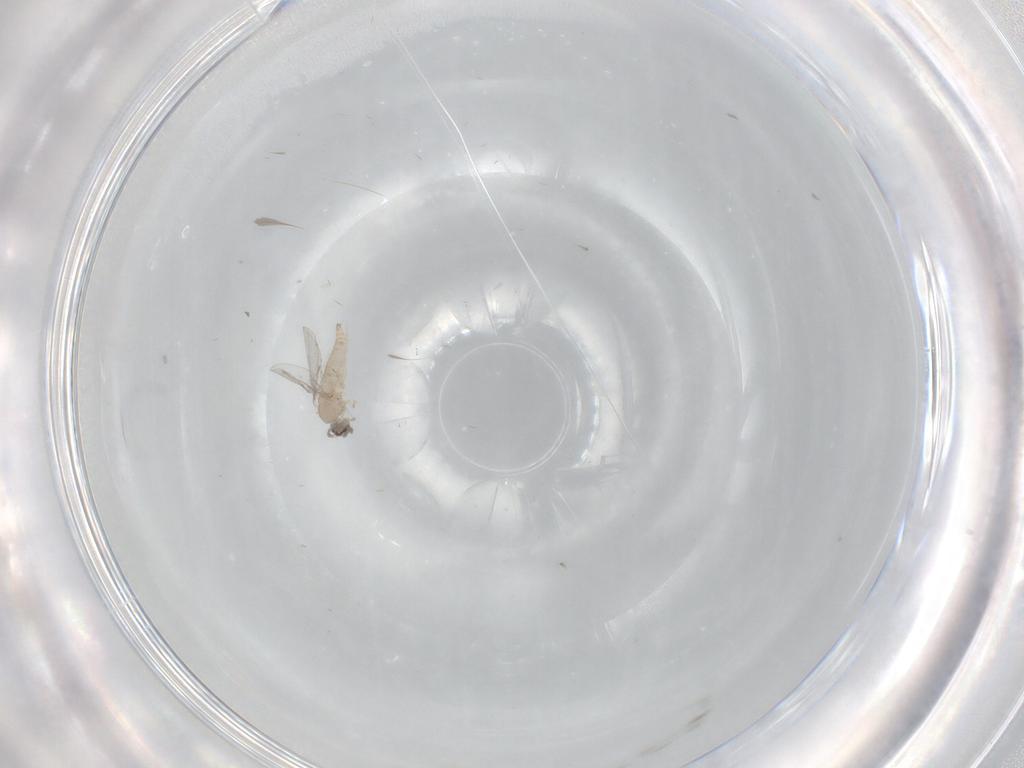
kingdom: Animalia
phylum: Arthropoda
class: Insecta
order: Diptera
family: Cecidomyiidae
